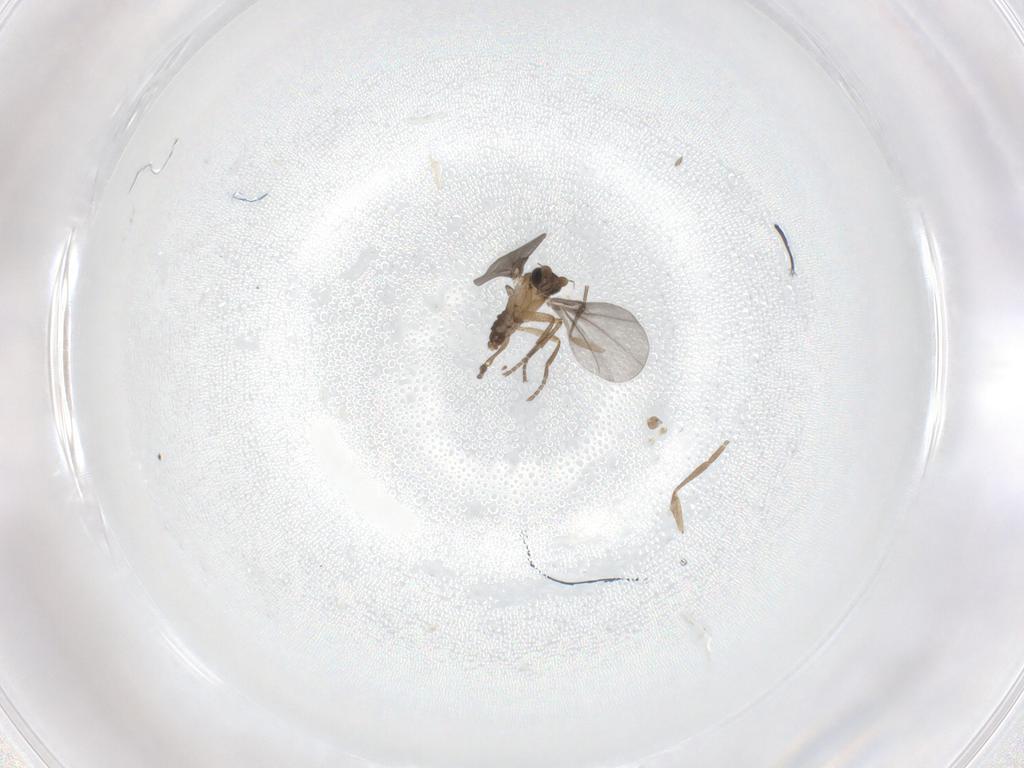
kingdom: Animalia
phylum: Arthropoda
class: Insecta
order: Diptera
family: Phoridae
